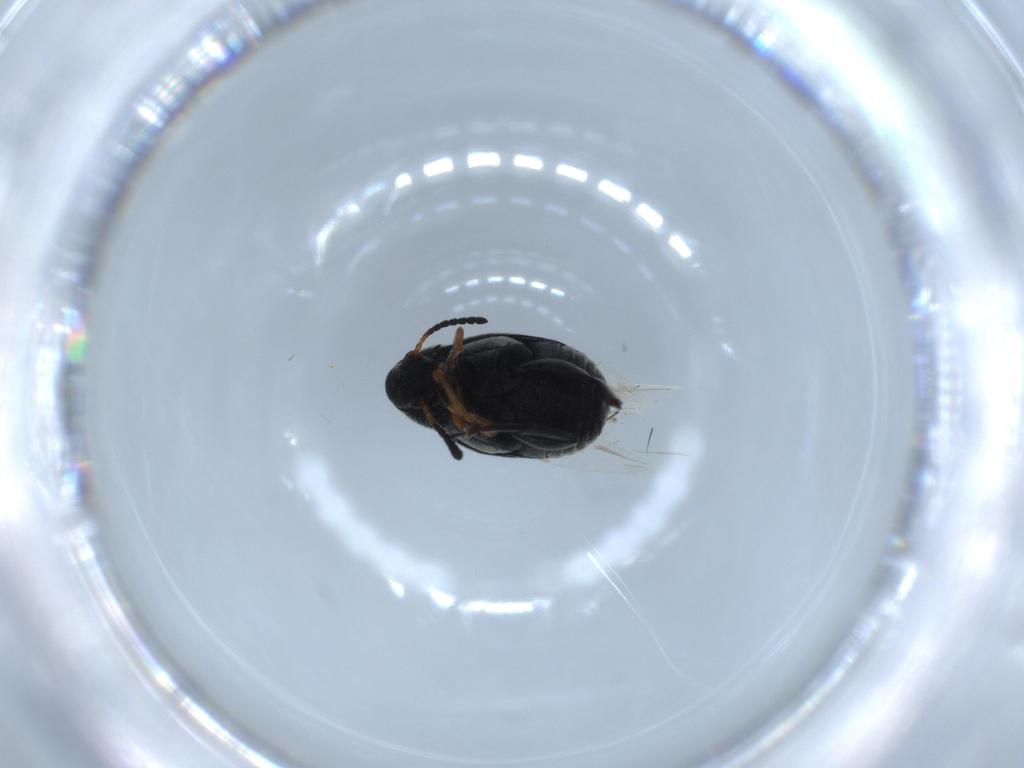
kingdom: Animalia
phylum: Arthropoda
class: Insecta
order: Coleoptera
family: Chrysomelidae
